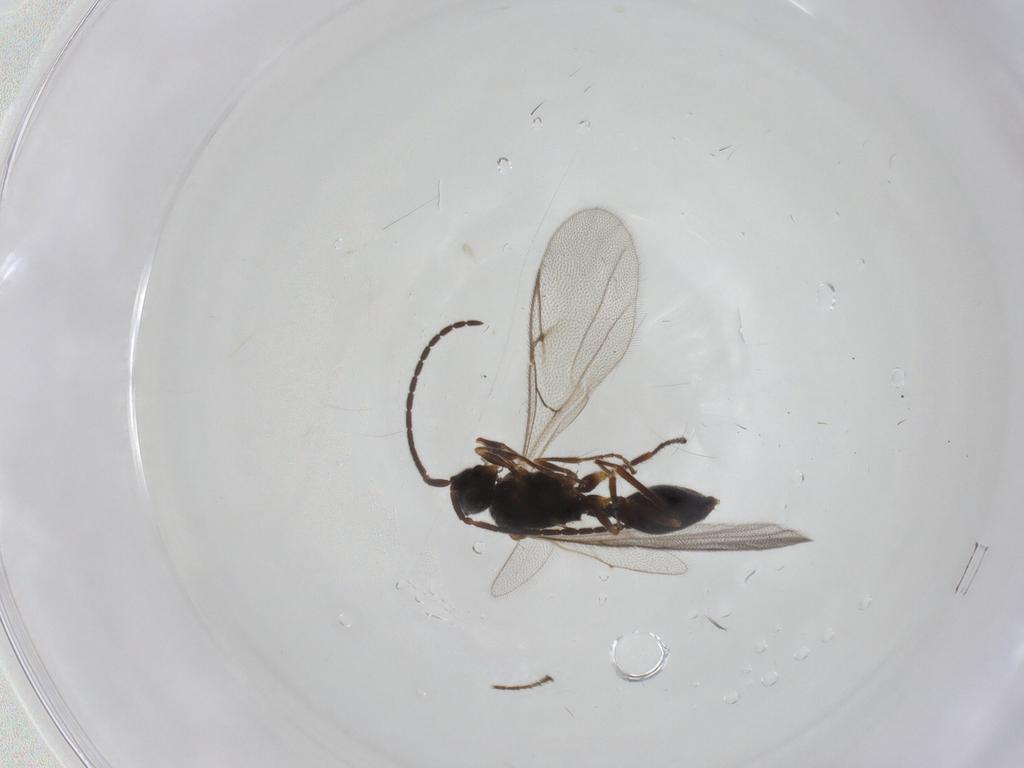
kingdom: Animalia
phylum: Arthropoda
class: Insecta
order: Hymenoptera
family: Diapriidae
